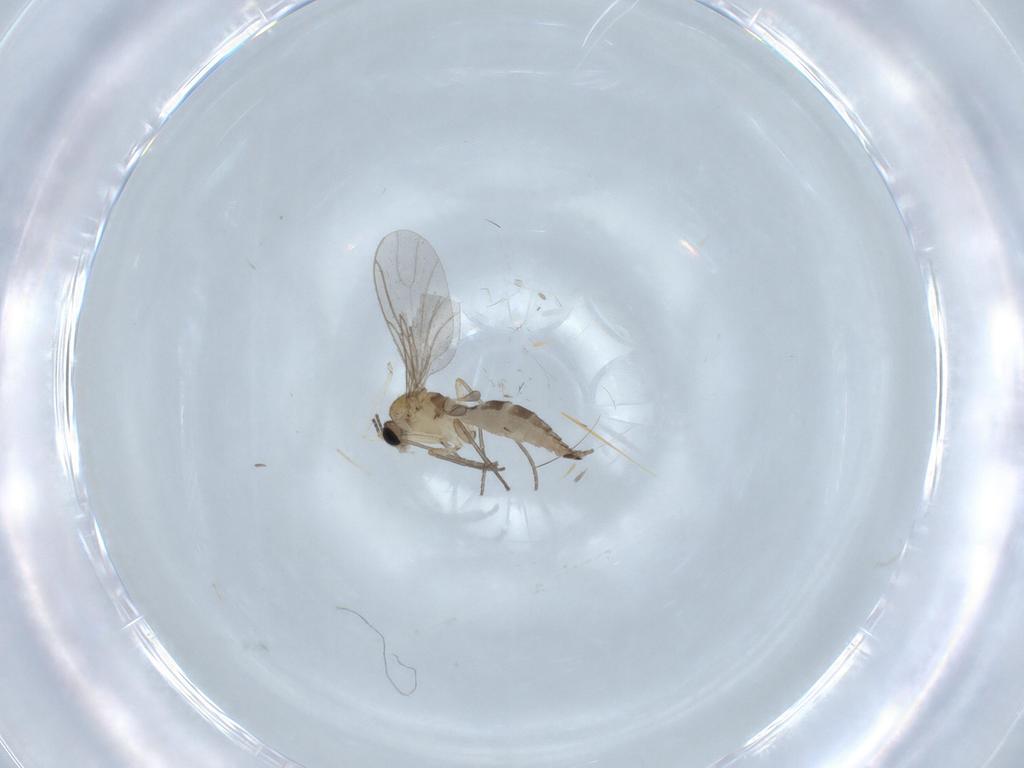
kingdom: Animalia
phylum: Arthropoda
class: Insecta
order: Diptera
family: Sciaridae
